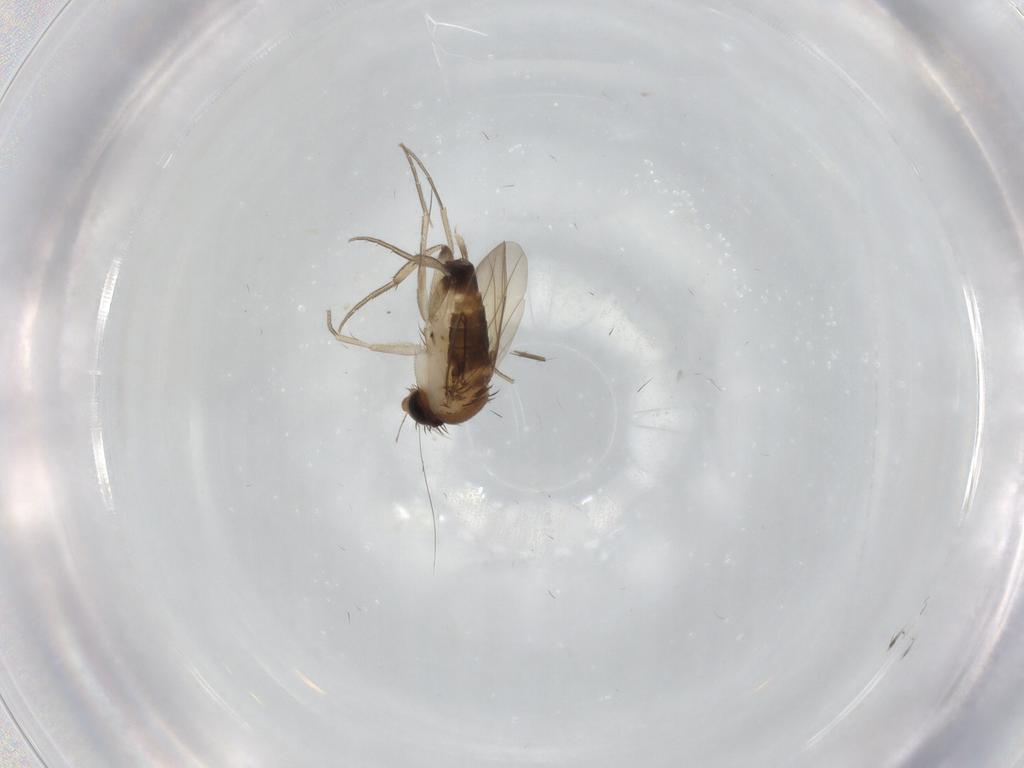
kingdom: Animalia
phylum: Arthropoda
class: Insecta
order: Diptera
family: Phoridae
